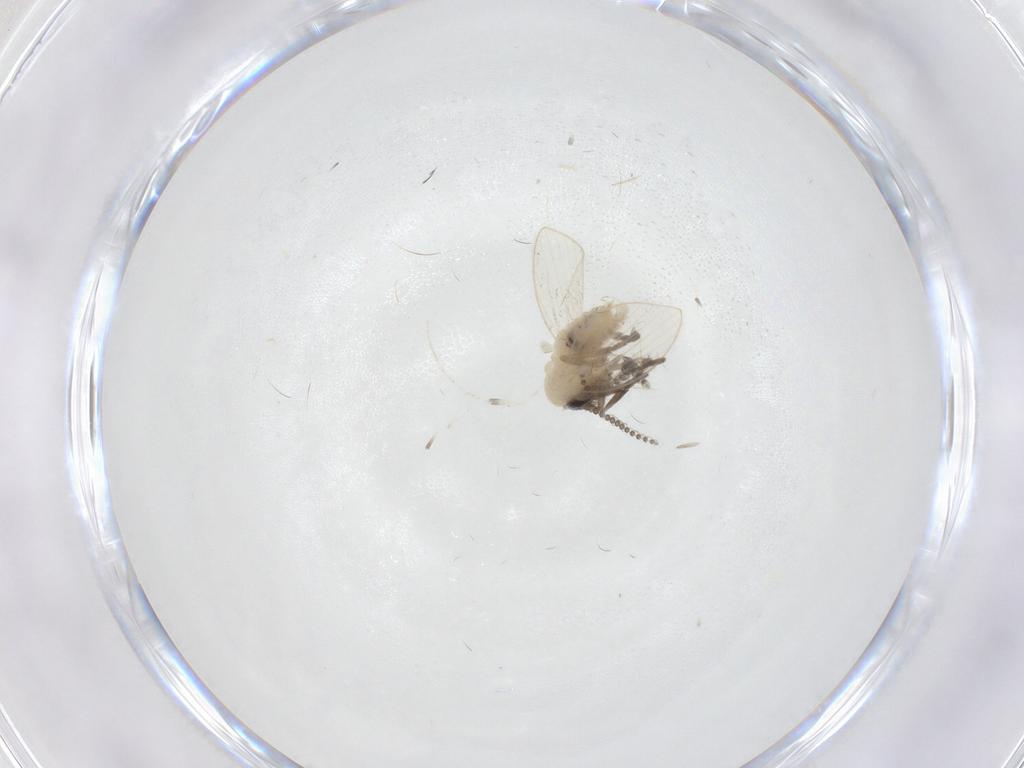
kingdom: Animalia
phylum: Arthropoda
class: Insecta
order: Diptera
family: Psychodidae
